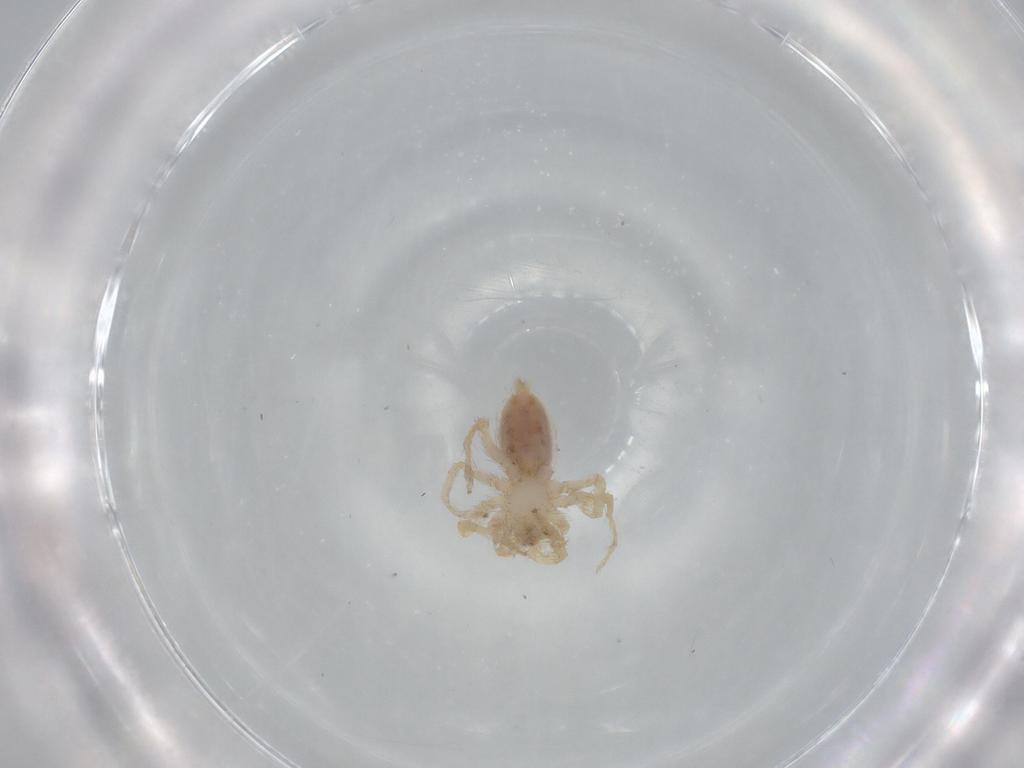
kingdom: Animalia
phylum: Arthropoda
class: Arachnida
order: Araneae
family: Oonopidae
